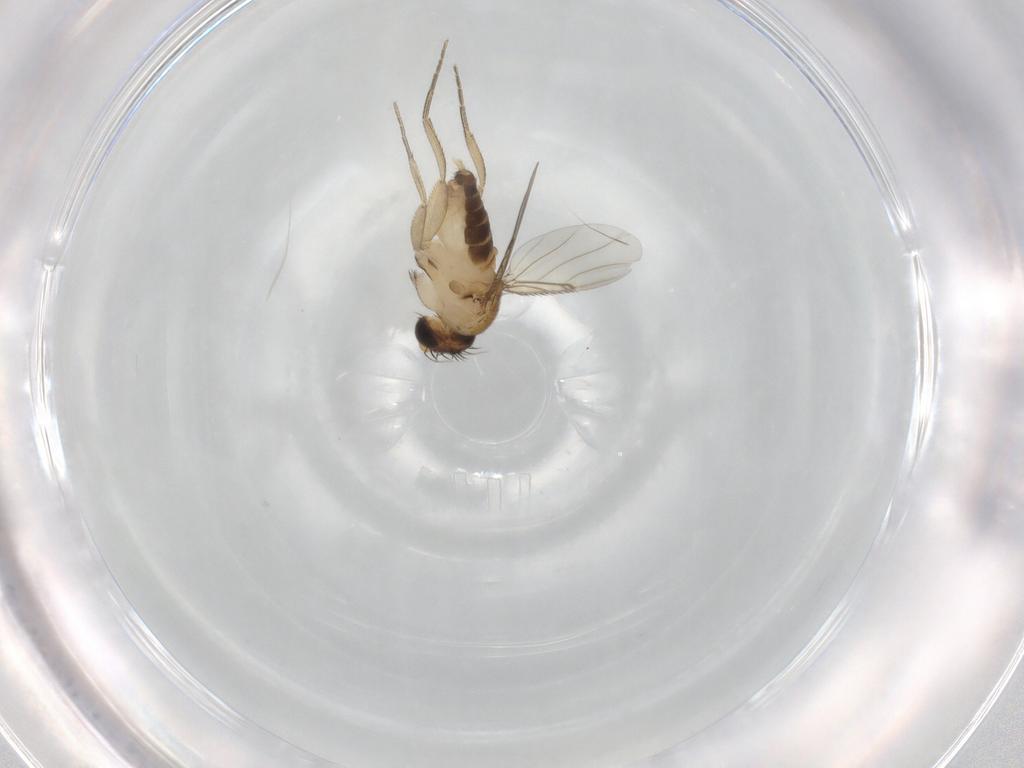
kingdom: Animalia
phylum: Arthropoda
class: Insecta
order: Diptera
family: Phoridae
